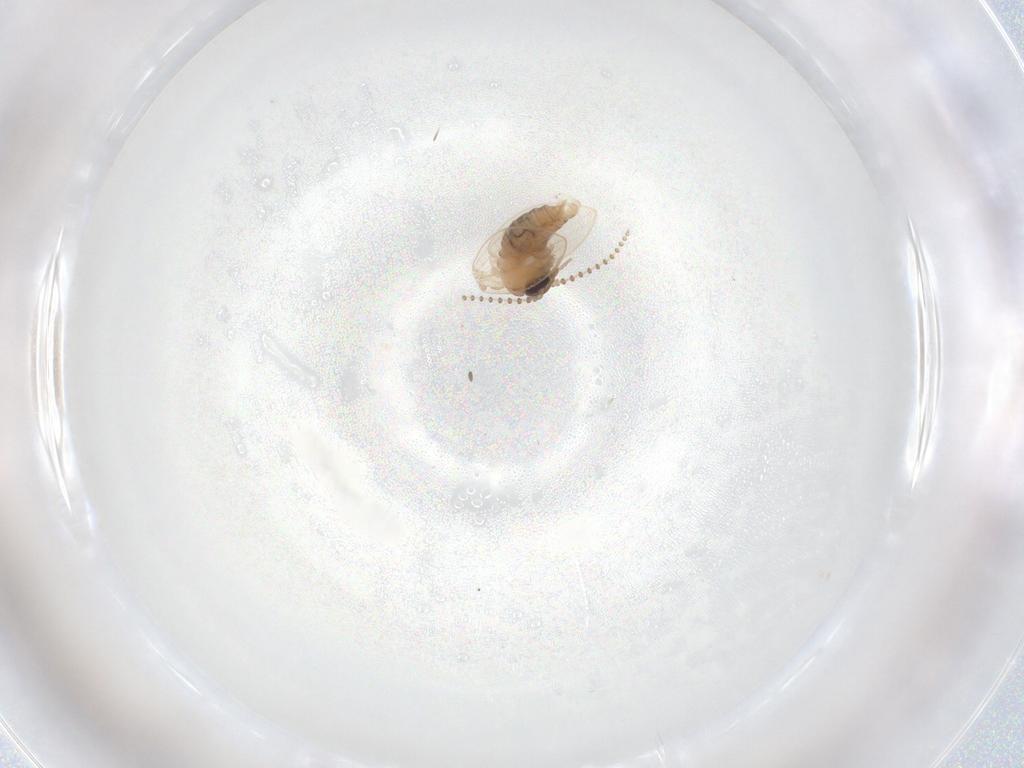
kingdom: Animalia
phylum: Arthropoda
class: Insecta
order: Diptera
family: Psychodidae
